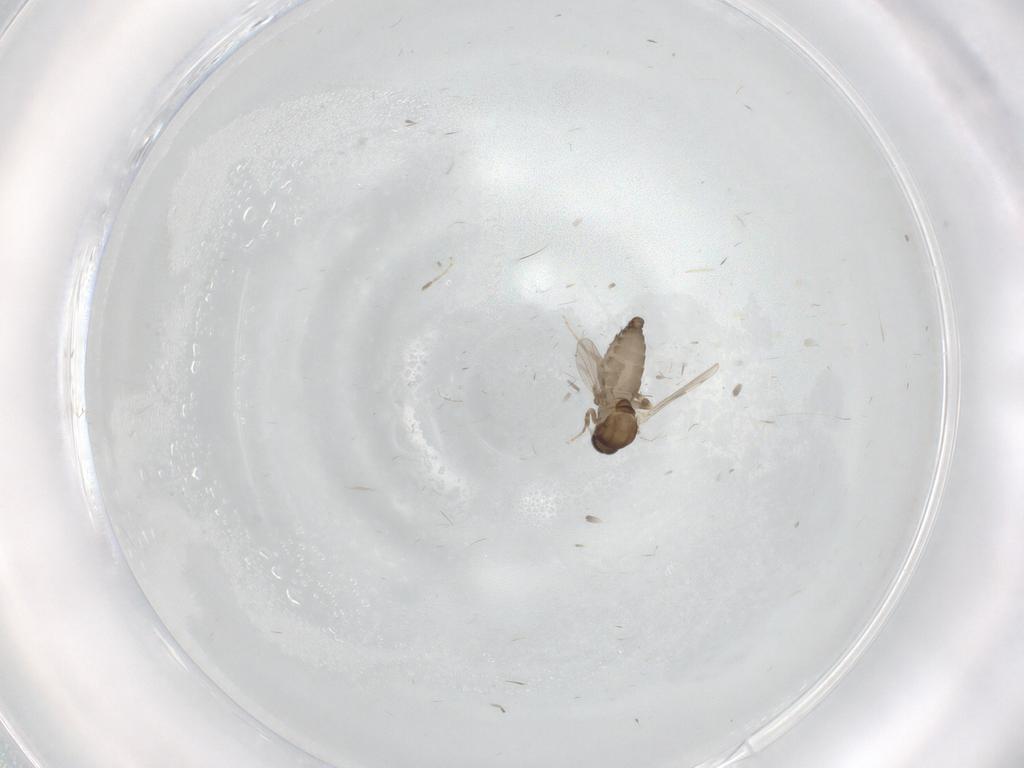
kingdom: Animalia
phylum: Arthropoda
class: Insecta
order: Diptera
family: Ceratopogonidae
